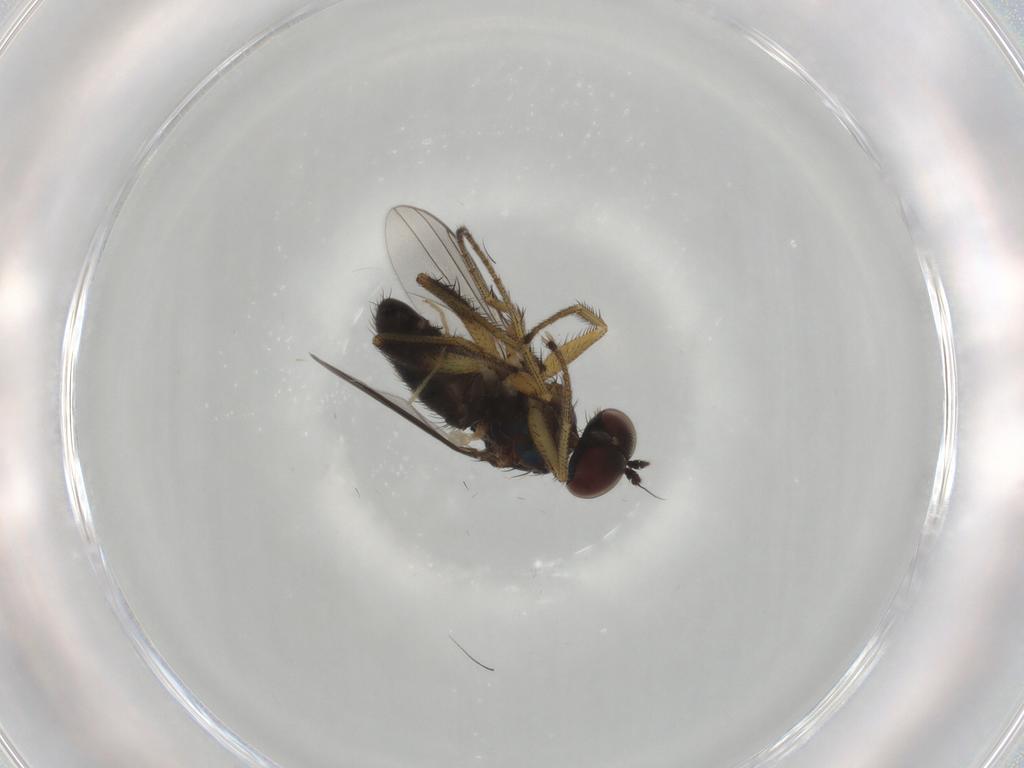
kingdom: Animalia
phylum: Arthropoda
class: Insecta
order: Diptera
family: Dolichopodidae
